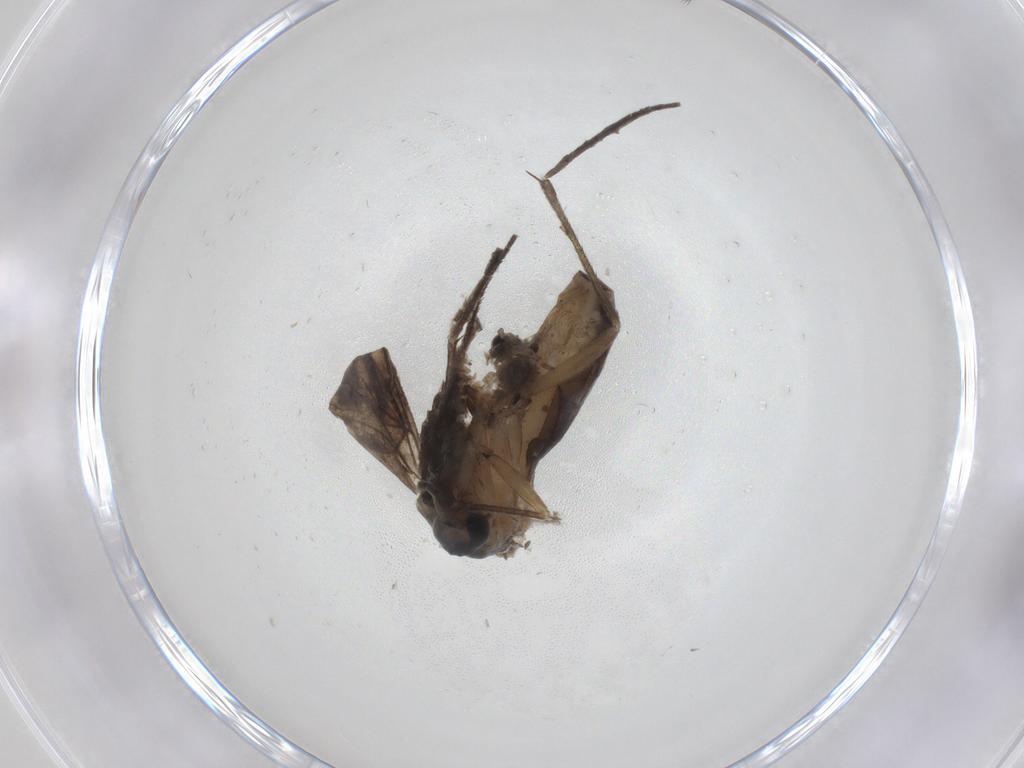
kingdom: Animalia
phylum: Arthropoda
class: Insecta
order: Diptera
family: Sciaridae
